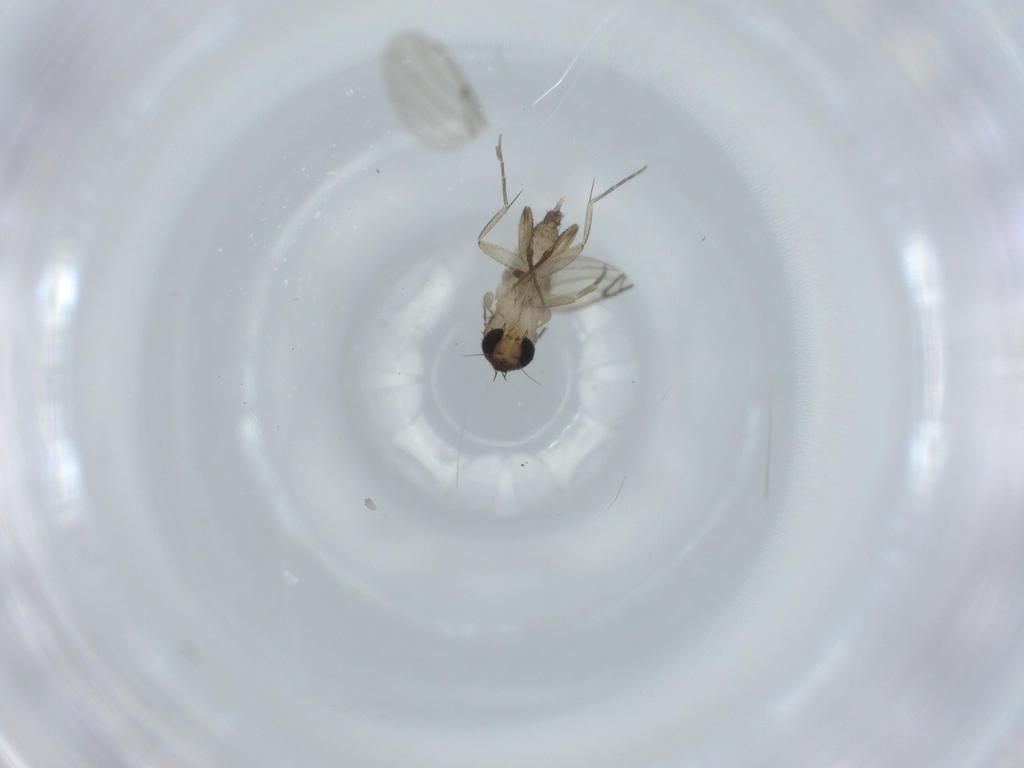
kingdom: Animalia
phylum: Arthropoda
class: Insecta
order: Diptera
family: Phoridae
